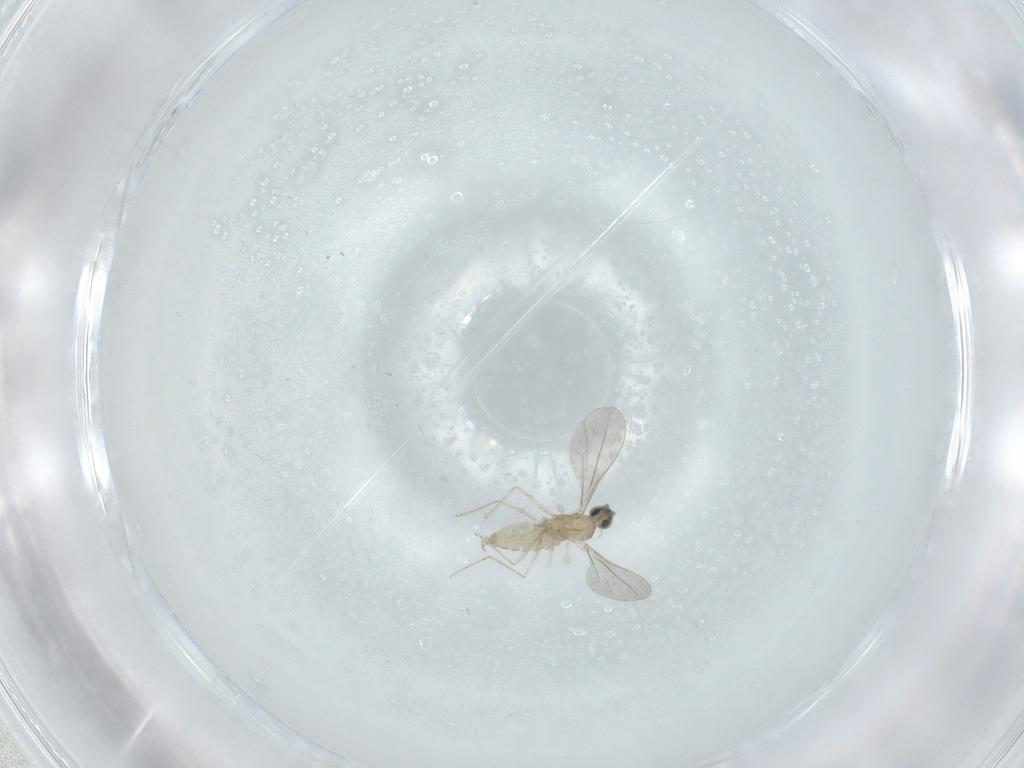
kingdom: Animalia
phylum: Arthropoda
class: Insecta
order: Diptera
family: Cecidomyiidae
